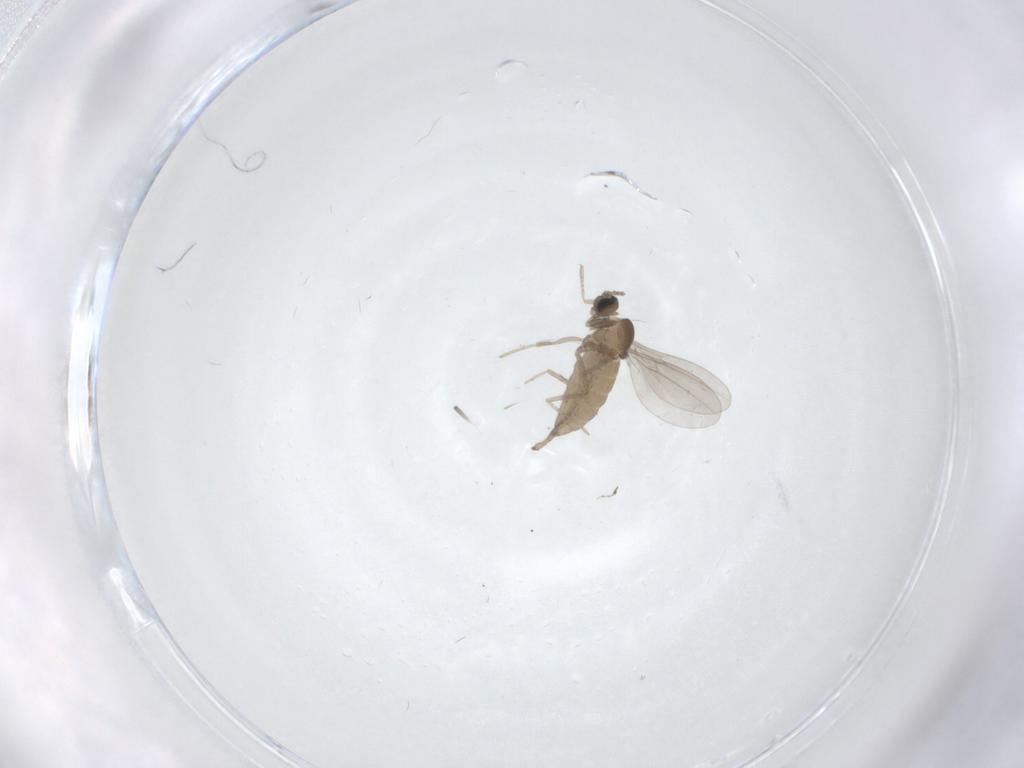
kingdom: Animalia
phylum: Arthropoda
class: Insecta
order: Diptera
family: Cecidomyiidae
